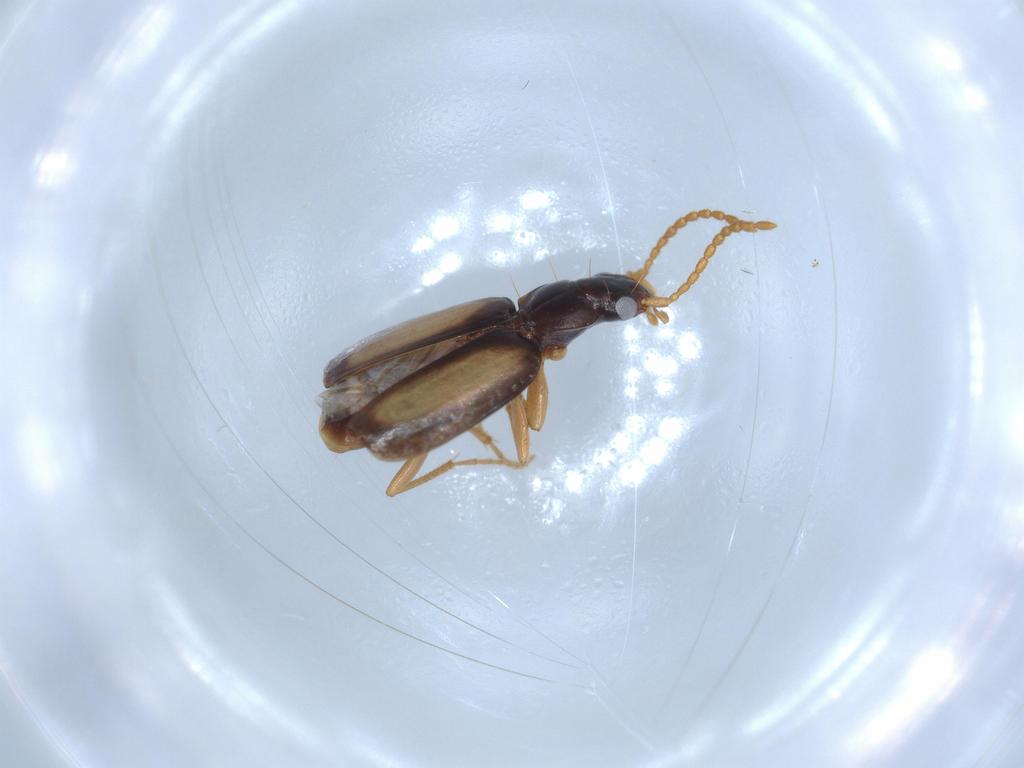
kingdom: Animalia
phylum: Arthropoda
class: Insecta
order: Coleoptera
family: Carabidae
